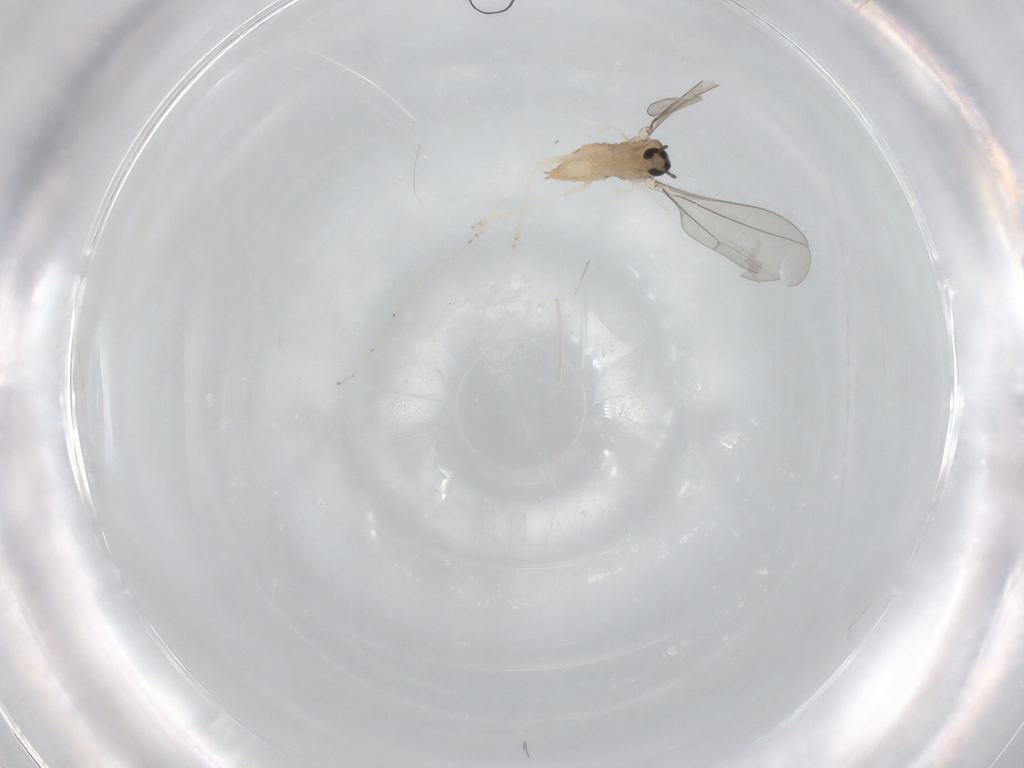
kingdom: Animalia
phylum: Arthropoda
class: Insecta
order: Diptera
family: Cecidomyiidae
